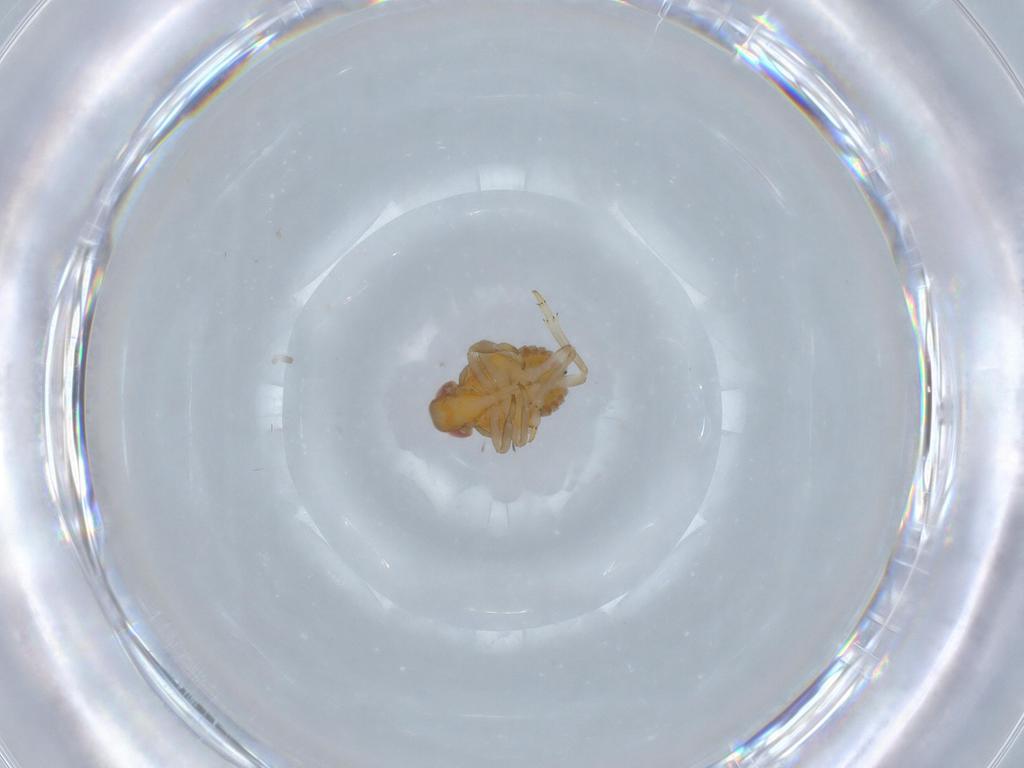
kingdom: Animalia
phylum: Arthropoda
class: Insecta
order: Hemiptera
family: Fulgoroidea_incertae_sedis
